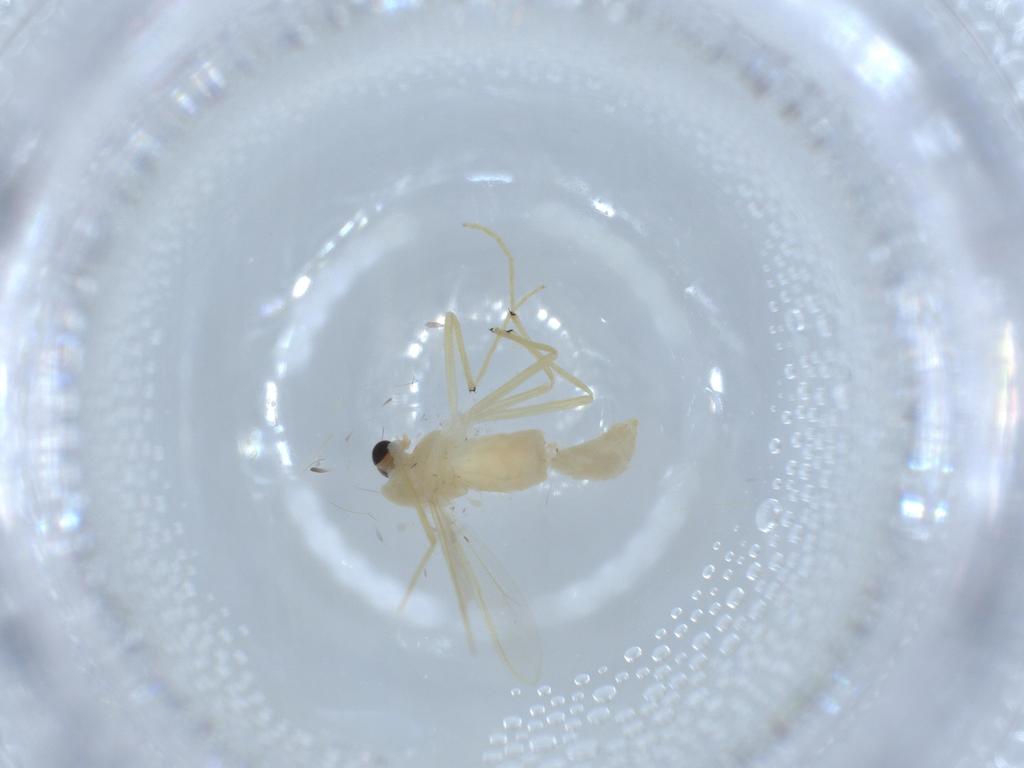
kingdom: Animalia
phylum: Arthropoda
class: Insecta
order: Diptera
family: Chironomidae
